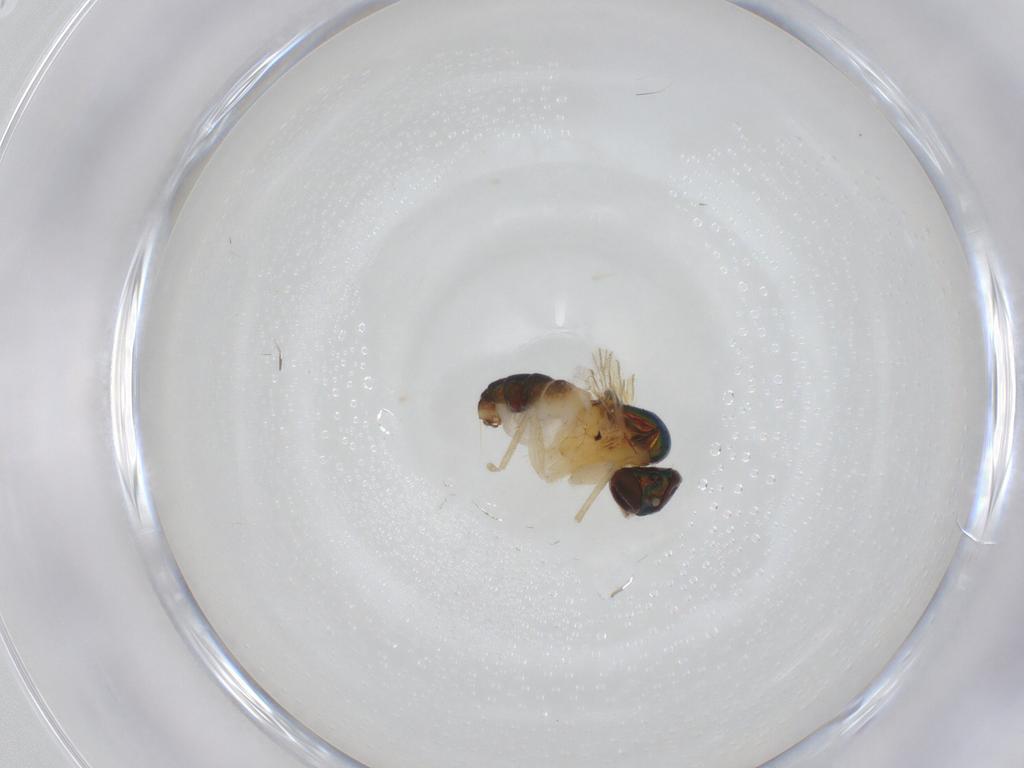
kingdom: Animalia
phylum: Arthropoda
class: Insecta
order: Diptera
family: Dolichopodidae
